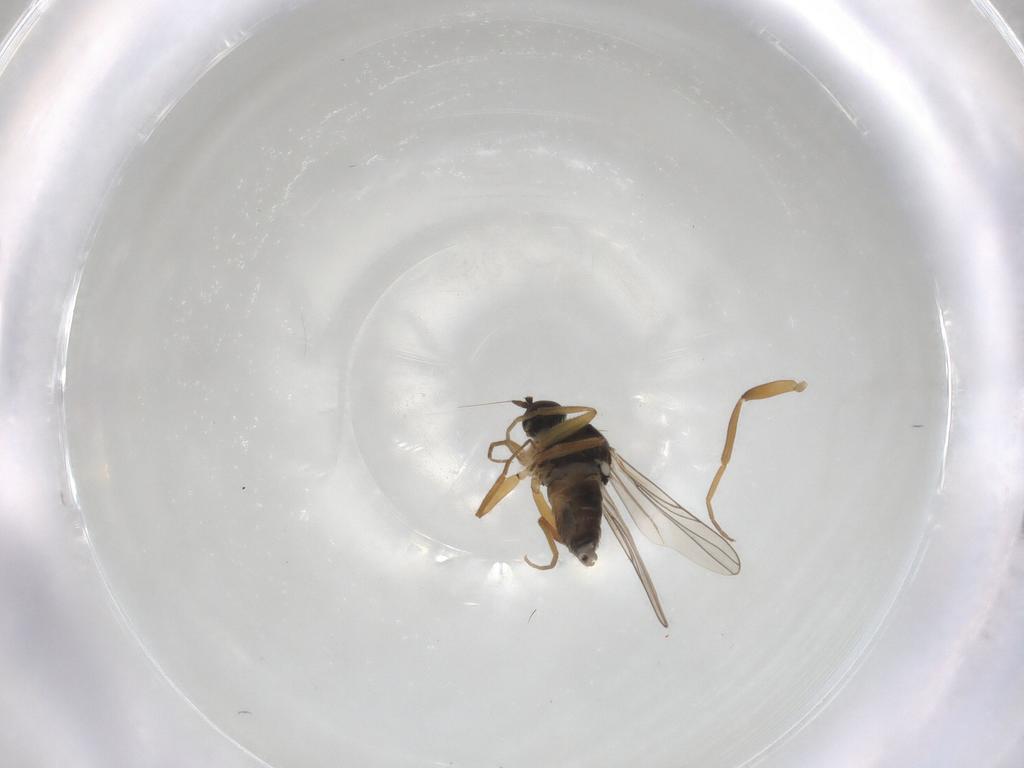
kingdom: Animalia
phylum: Arthropoda
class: Insecta
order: Diptera
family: Hybotidae
